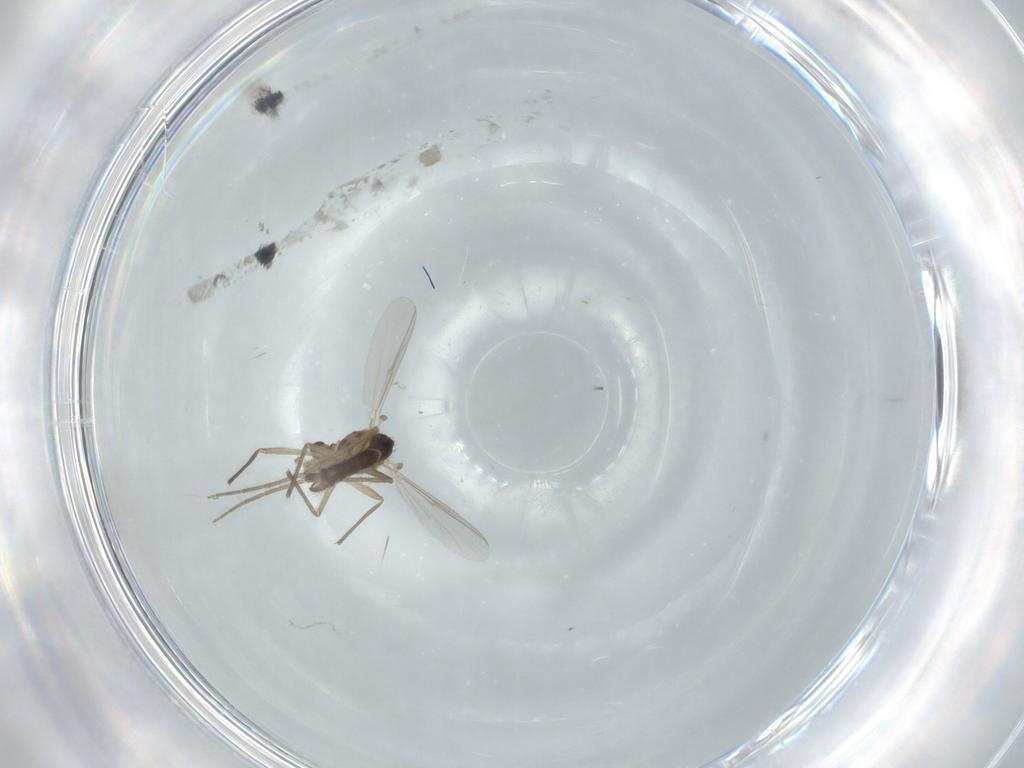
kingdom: Animalia
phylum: Arthropoda
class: Insecta
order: Diptera
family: Chironomidae
